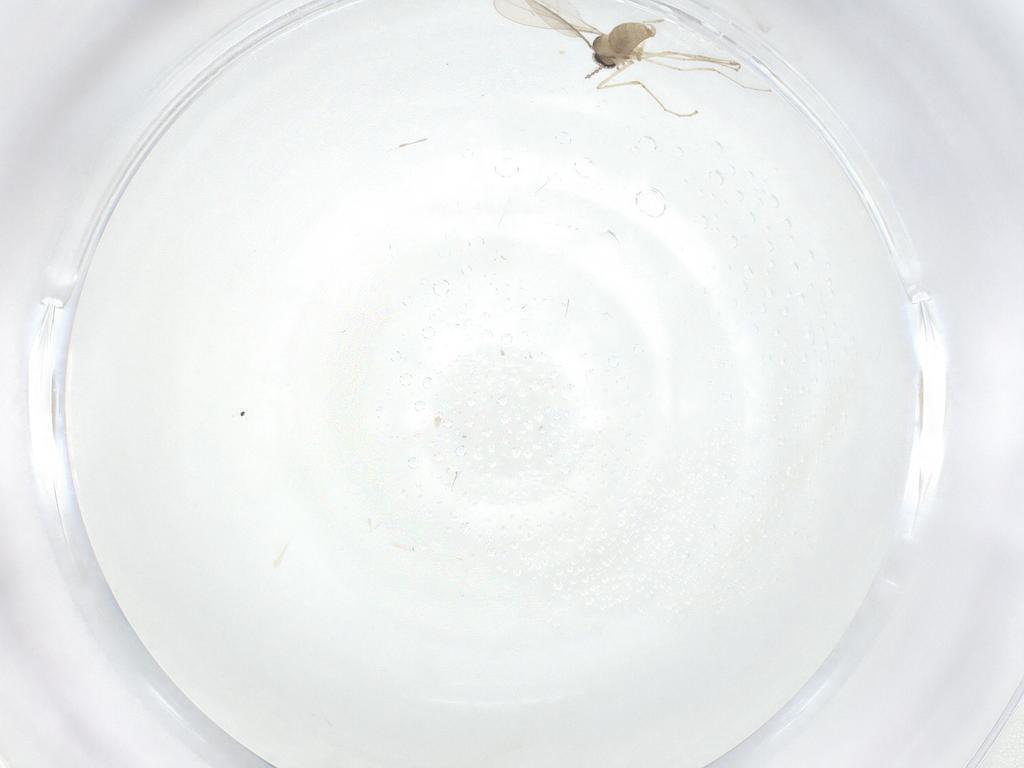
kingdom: Animalia
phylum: Arthropoda
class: Insecta
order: Diptera
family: Cecidomyiidae
